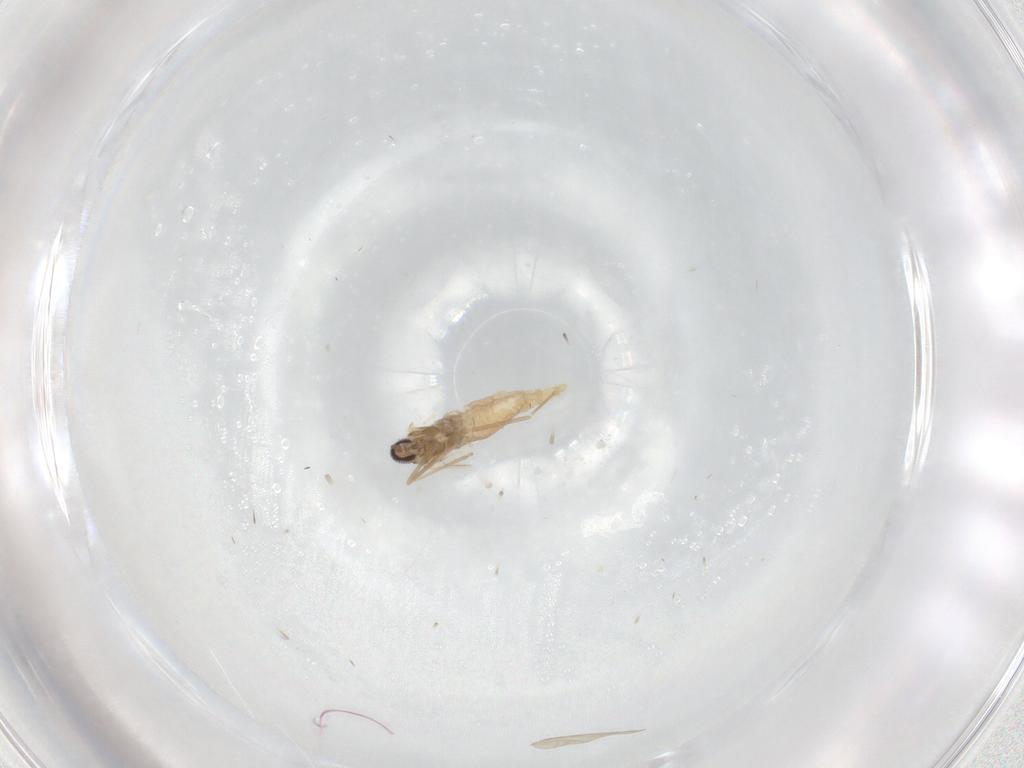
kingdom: Animalia
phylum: Arthropoda
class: Insecta
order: Diptera
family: Cecidomyiidae
